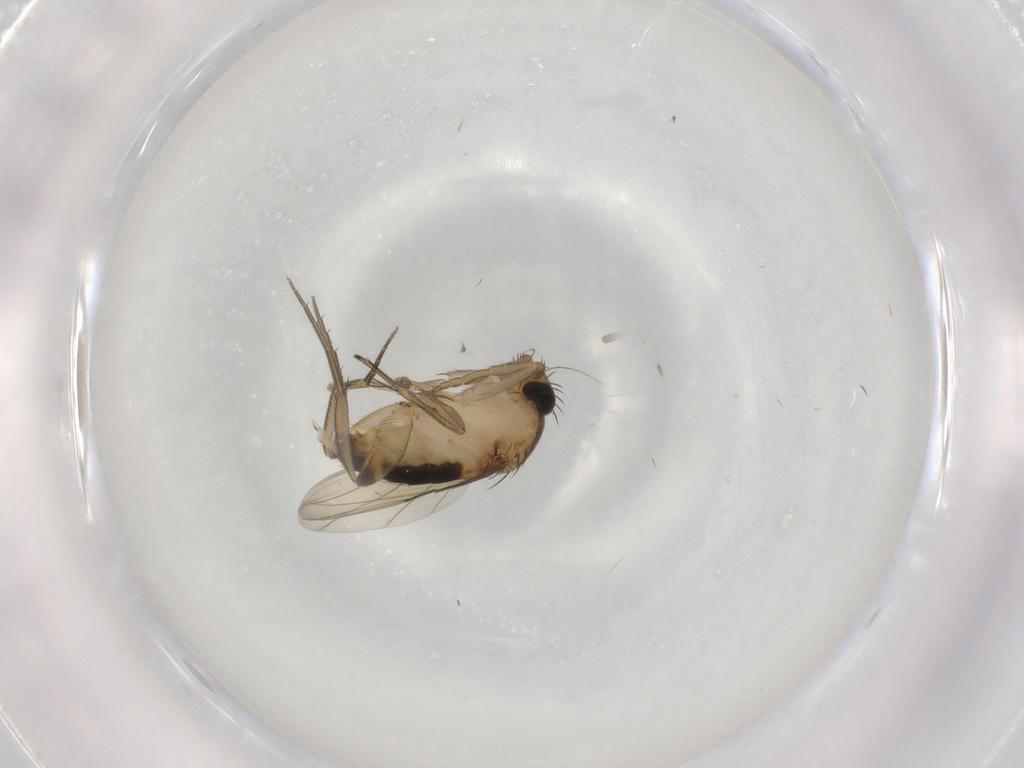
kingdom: Animalia
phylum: Arthropoda
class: Insecta
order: Diptera
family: Phoridae
